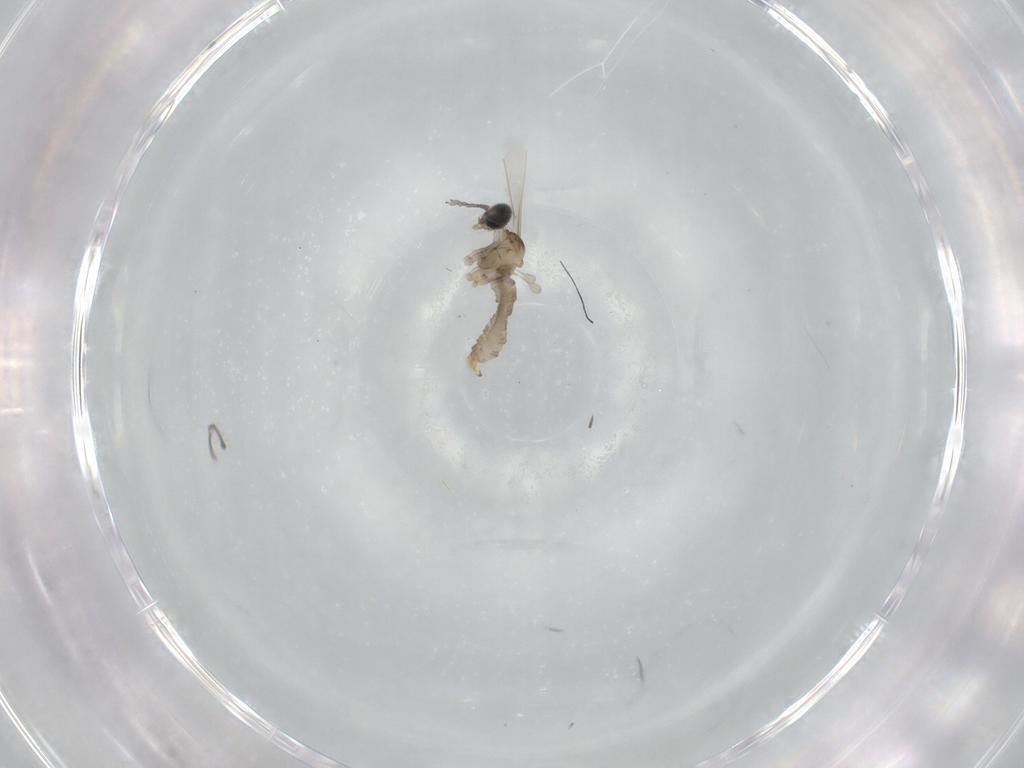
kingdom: Animalia
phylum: Arthropoda
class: Insecta
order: Diptera
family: Cecidomyiidae
